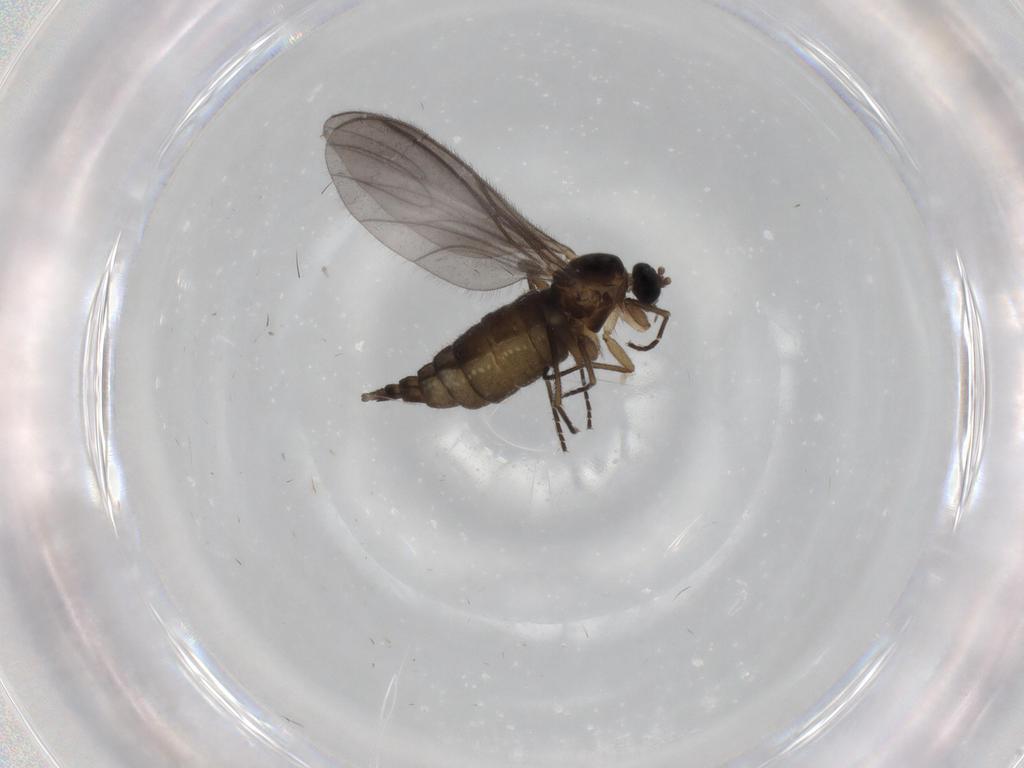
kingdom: Animalia
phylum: Arthropoda
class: Insecta
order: Diptera
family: Sciaridae
